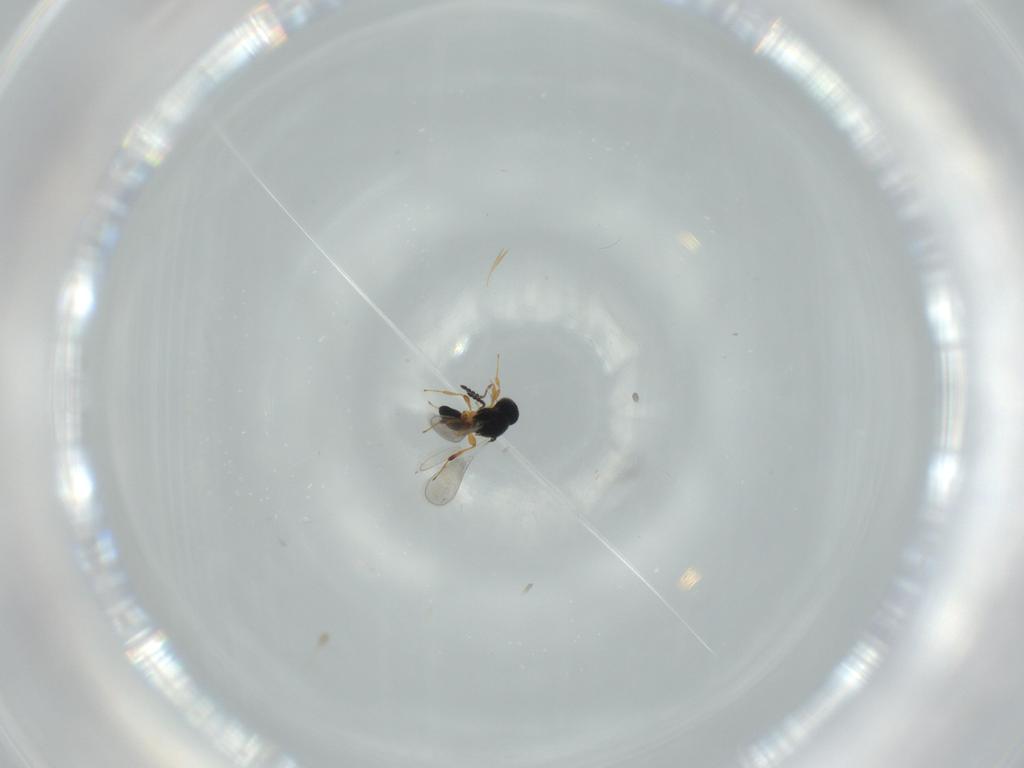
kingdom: Animalia
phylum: Arthropoda
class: Insecta
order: Hymenoptera
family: Platygastridae
